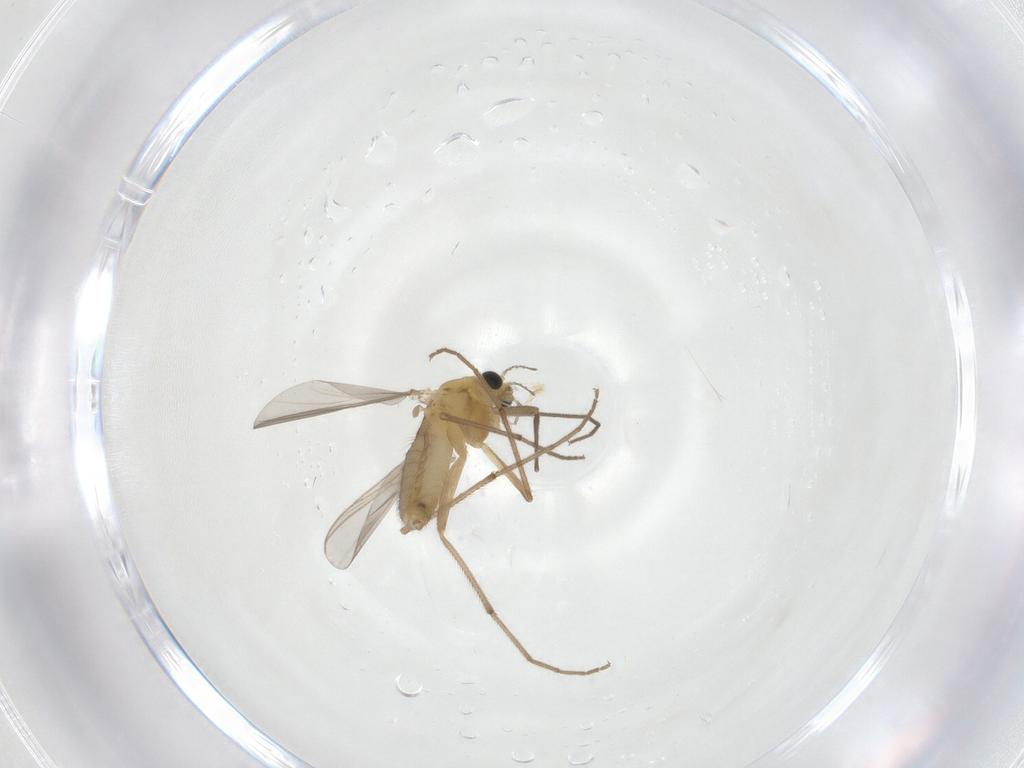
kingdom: Animalia
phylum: Arthropoda
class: Insecta
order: Diptera
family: Chironomidae
